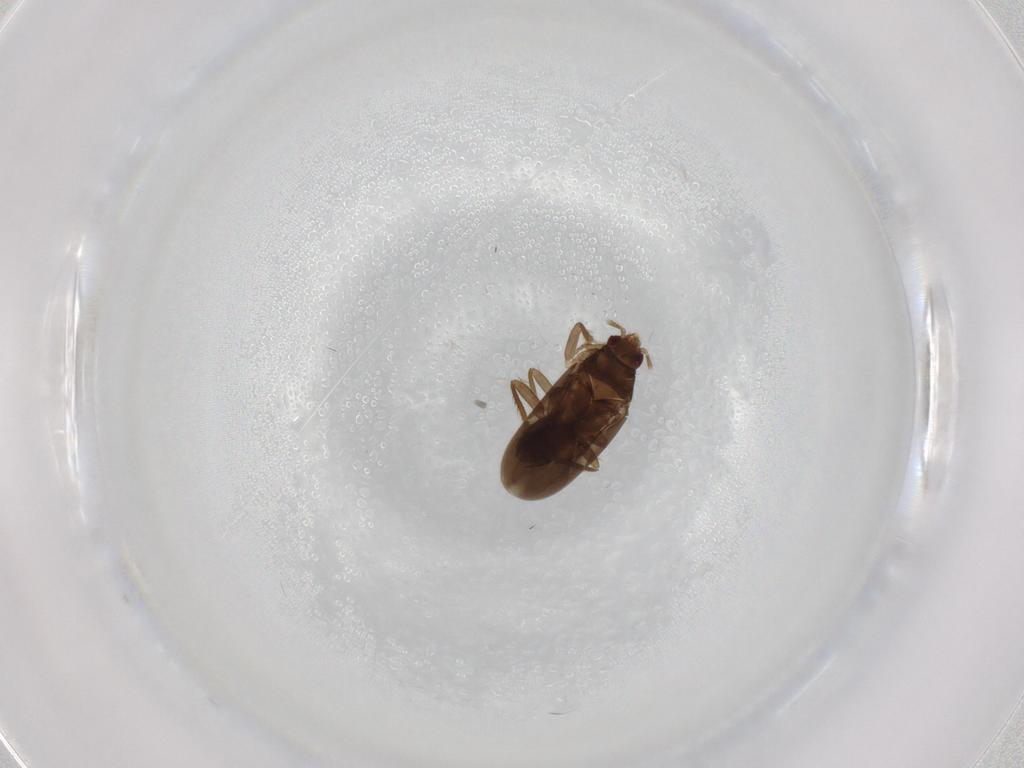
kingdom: Animalia
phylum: Arthropoda
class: Insecta
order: Hemiptera
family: Ceratocombidae
